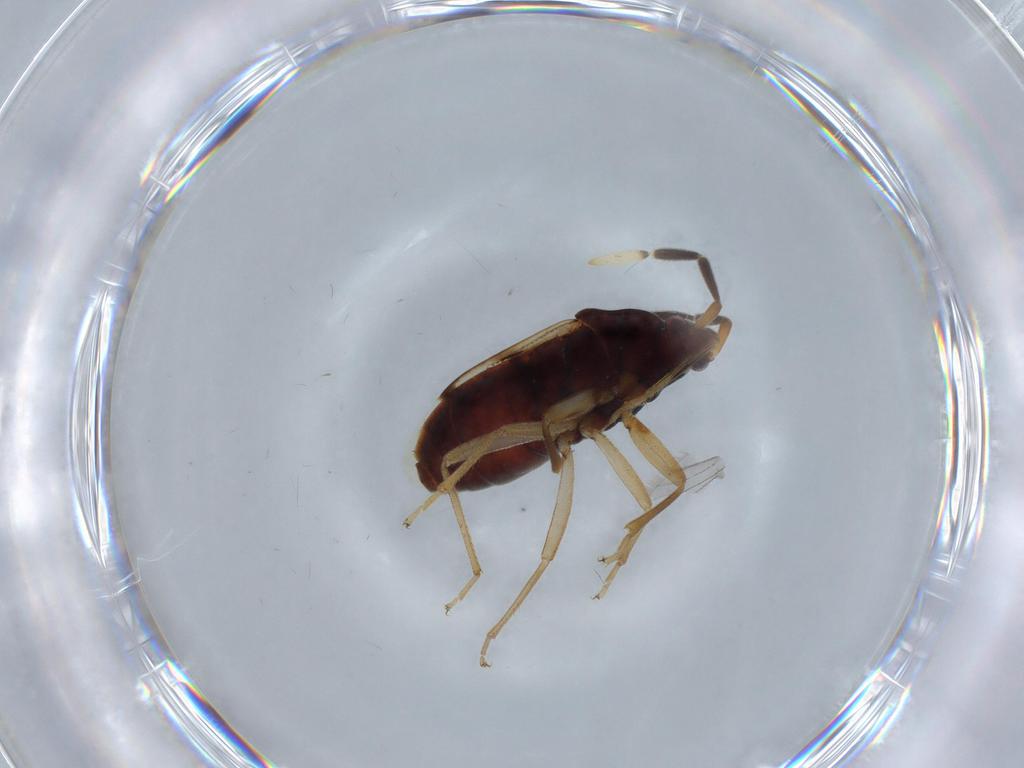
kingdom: Animalia
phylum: Arthropoda
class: Insecta
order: Hemiptera
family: Rhyparochromidae
